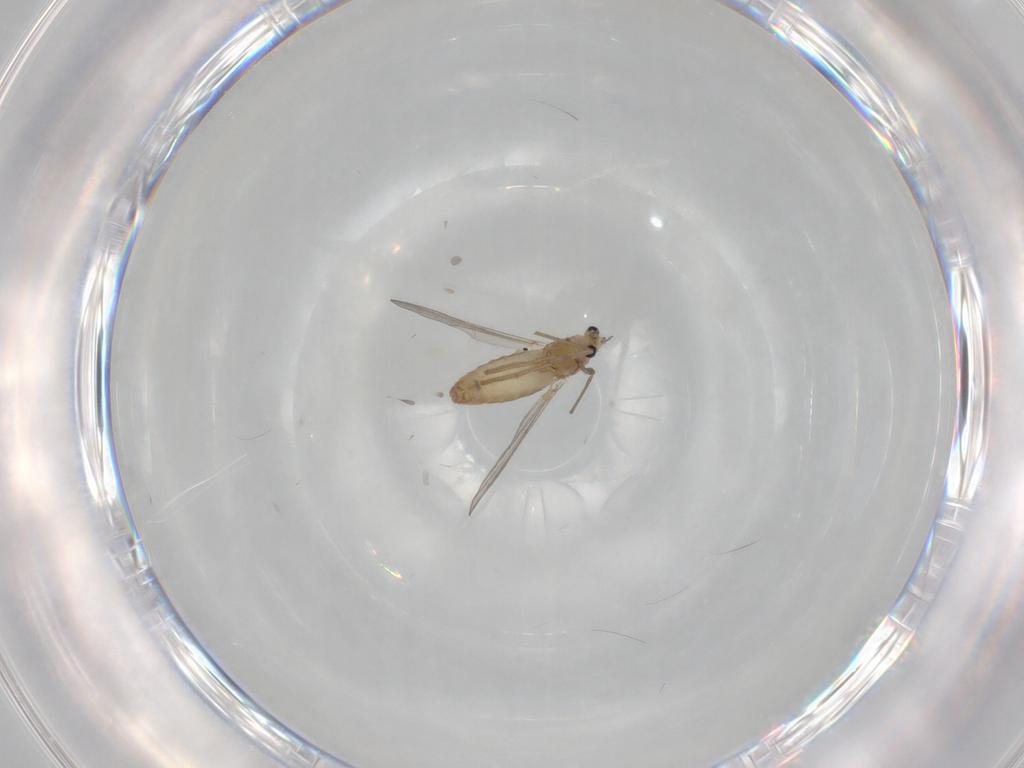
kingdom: Animalia
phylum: Arthropoda
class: Insecta
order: Diptera
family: Chironomidae
